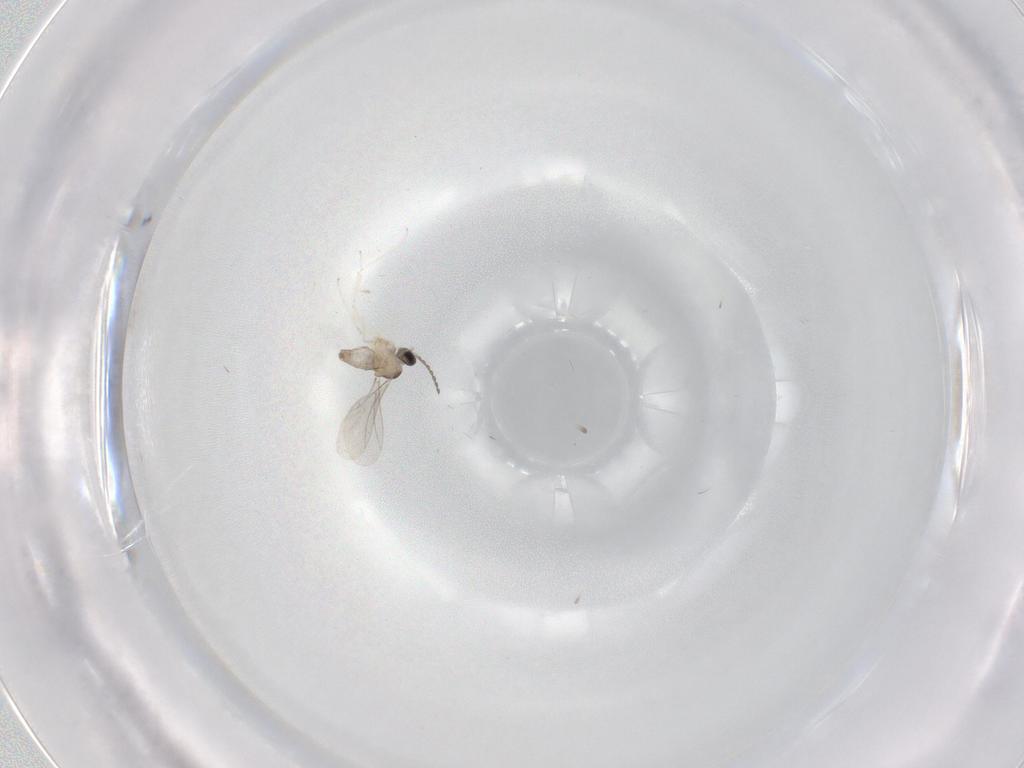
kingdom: Animalia
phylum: Arthropoda
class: Insecta
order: Diptera
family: Cecidomyiidae
